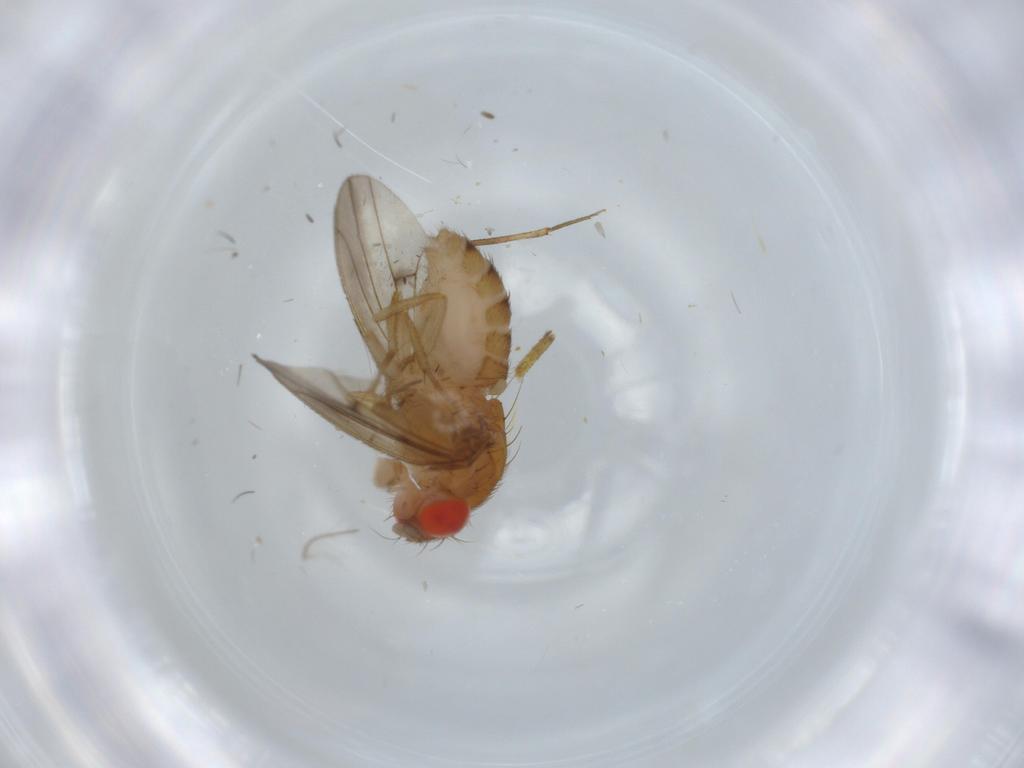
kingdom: Animalia
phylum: Arthropoda
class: Insecta
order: Diptera
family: Drosophilidae
